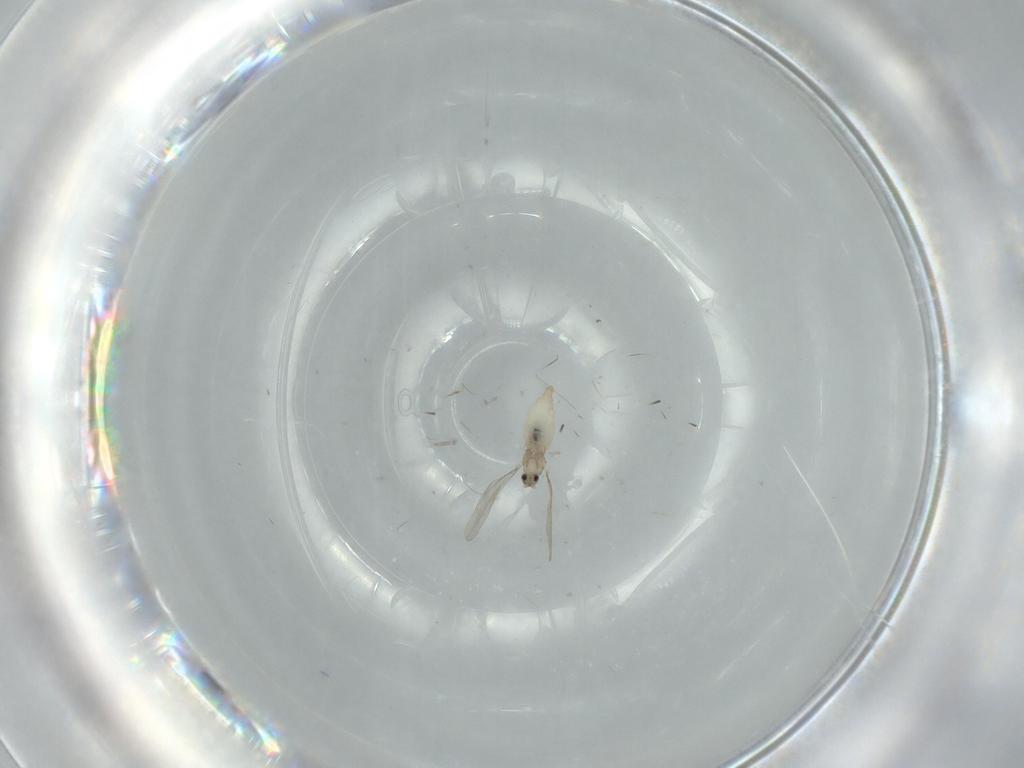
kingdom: Animalia
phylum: Arthropoda
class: Insecta
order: Diptera
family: Cecidomyiidae
